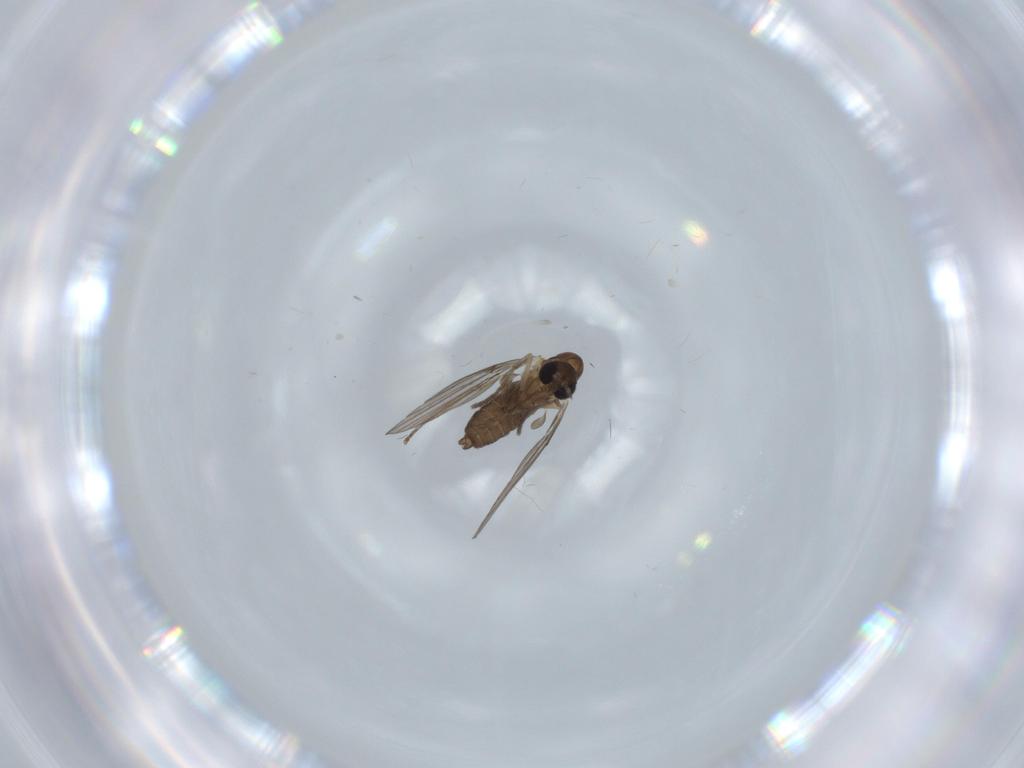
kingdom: Animalia
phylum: Arthropoda
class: Insecta
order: Diptera
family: Psychodidae
